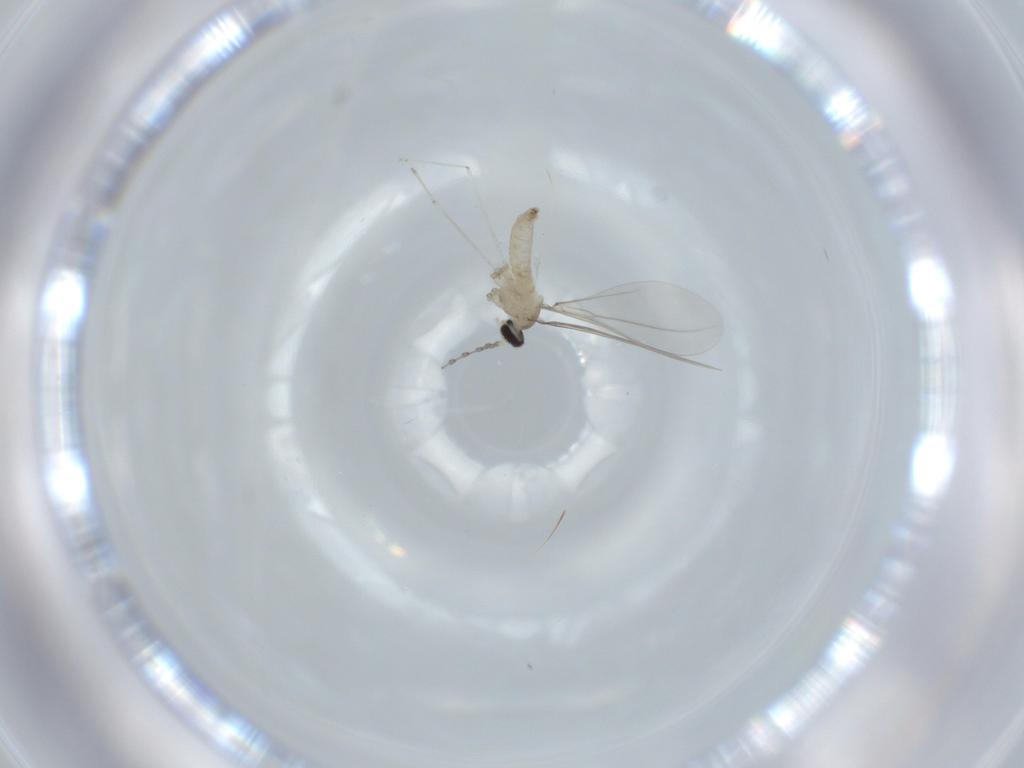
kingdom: Animalia
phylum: Arthropoda
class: Insecta
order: Diptera
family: Cecidomyiidae
